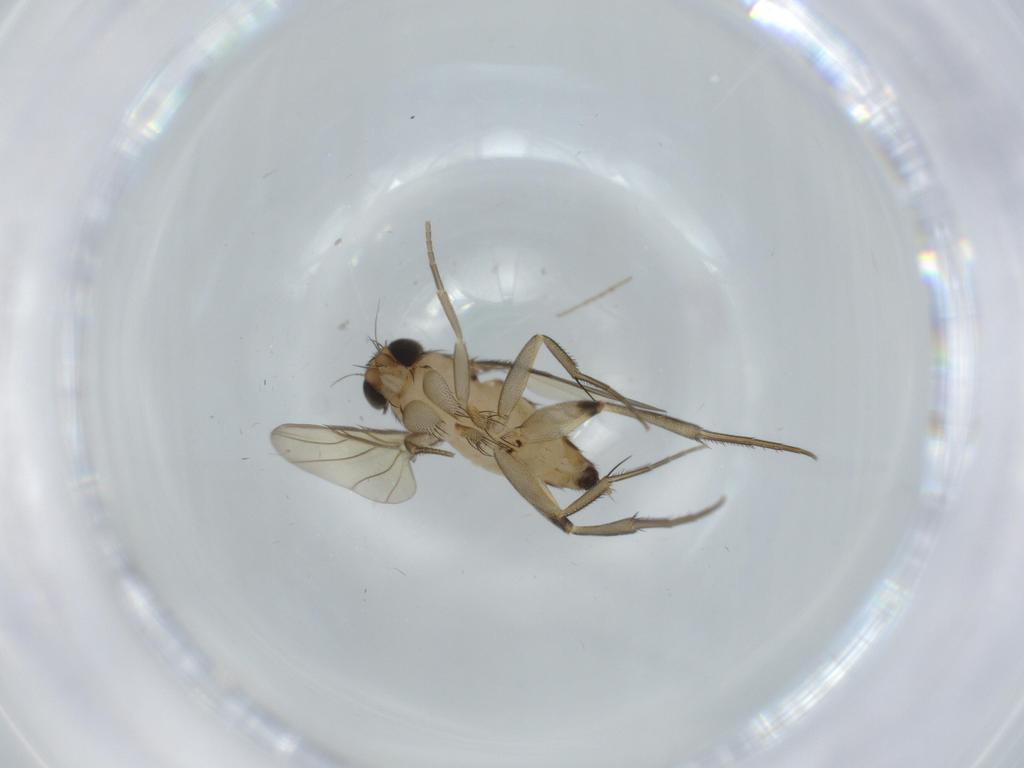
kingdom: Animalia
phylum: Arthropoda
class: Insecta
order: Diptera
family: Phoridae
